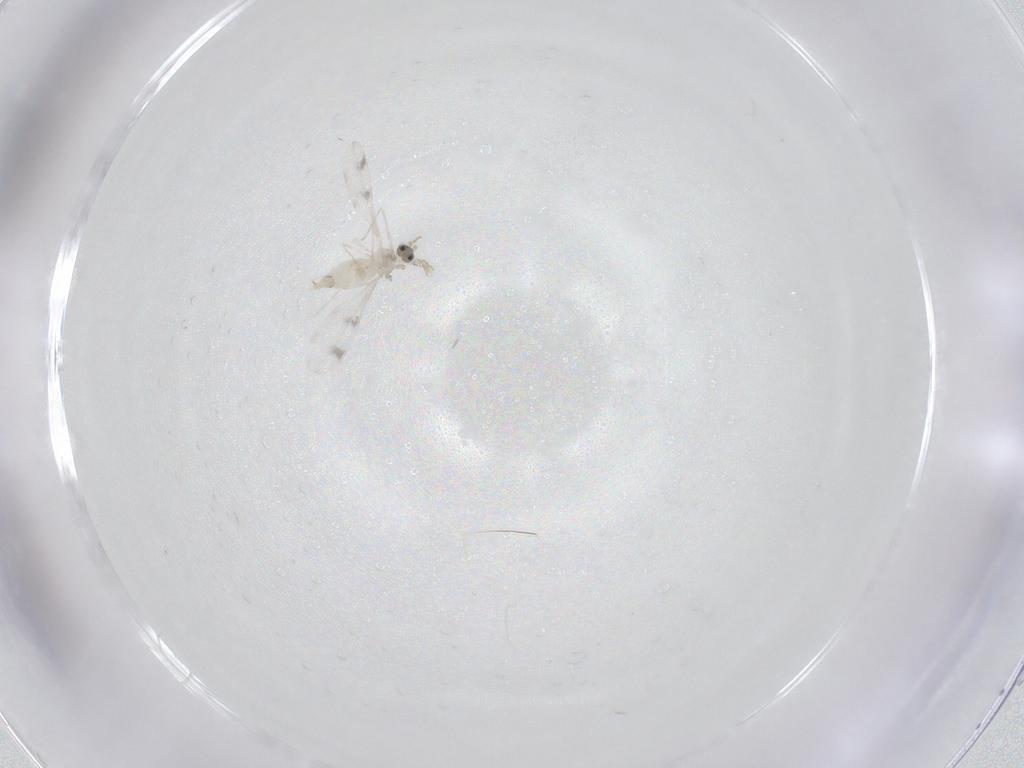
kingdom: Animalia
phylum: Arthropoda
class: Insecta
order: Diptera
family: Cecidomyiidae
